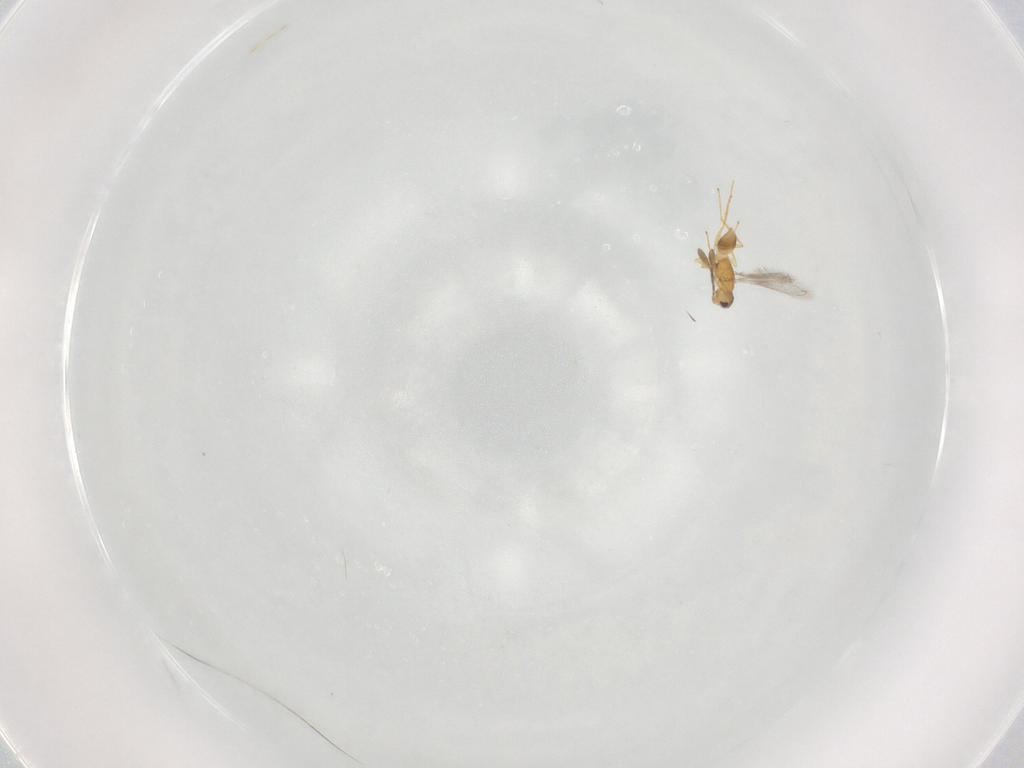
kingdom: Animalia
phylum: Arthropoda
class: Insecta
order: Hymenoptera
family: Mymaridae
